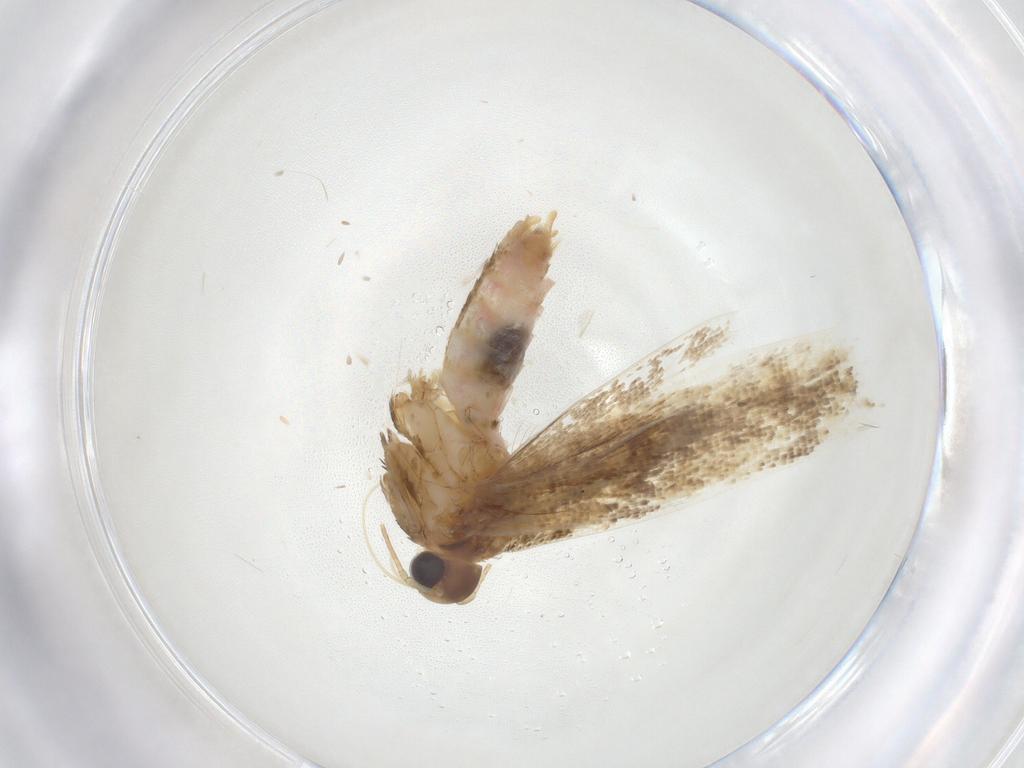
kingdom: Animalia
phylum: Arthropoda
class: Insecta
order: Lepidoptera
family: Gelechiidae
